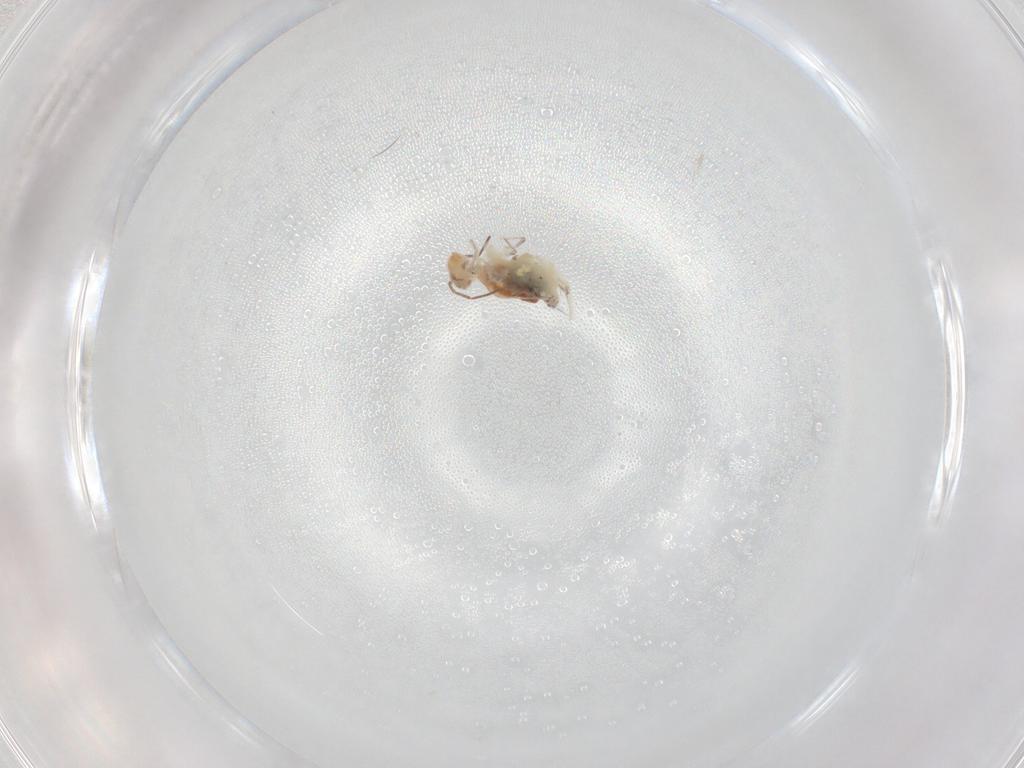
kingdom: Animalia
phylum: Arthropoda
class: Collembola
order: Symphypleona
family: Bourletiellidae
